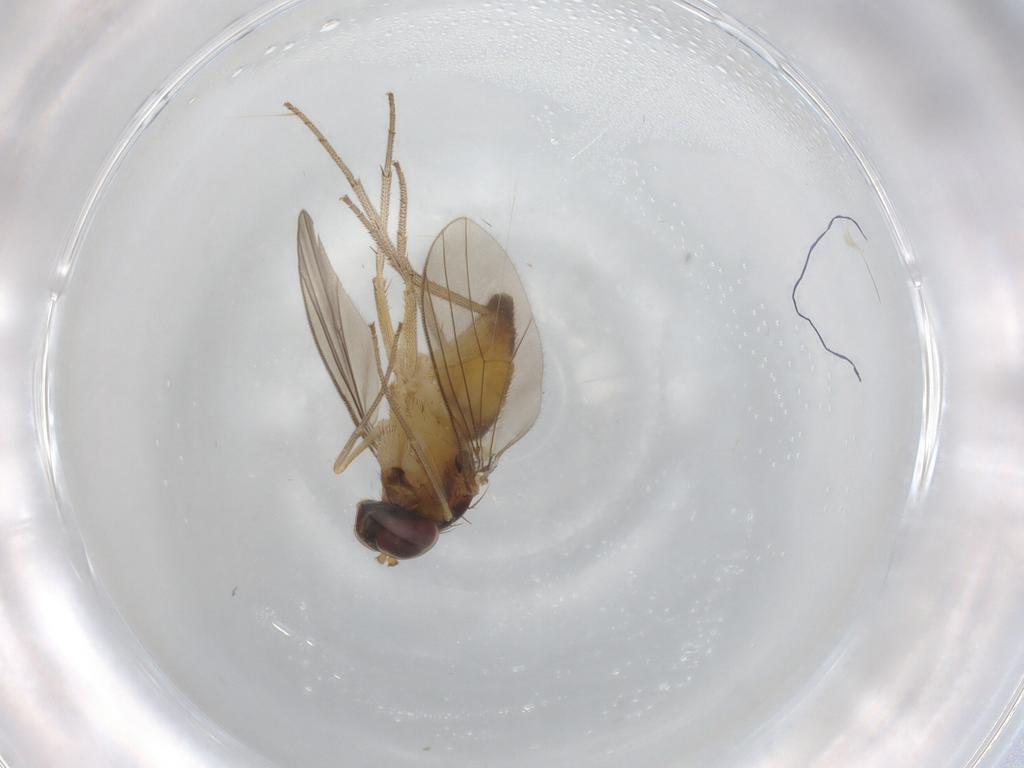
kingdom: Animalia
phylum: Arthropoda
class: Insecta
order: Diptera
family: Dolichopodidae
